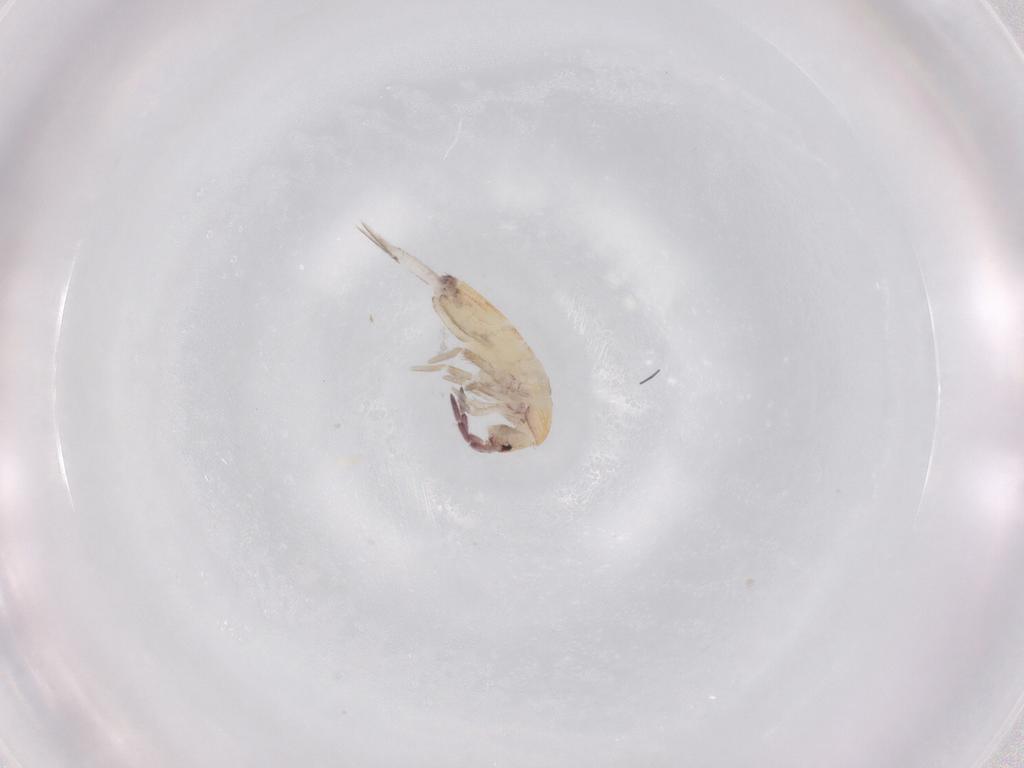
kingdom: Animalia
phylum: Arthropoda
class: Collembola
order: Entomobryomorpha
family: Entomobryidae
